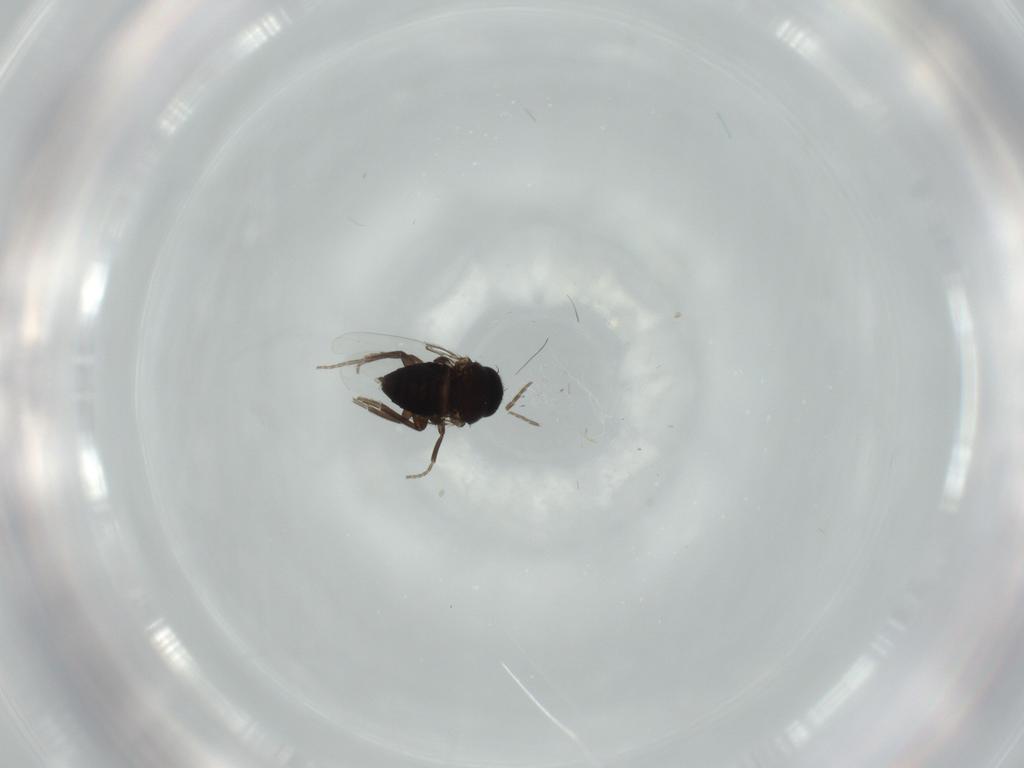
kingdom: Animalia
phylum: Arthropoda
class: Insecta
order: Diptera
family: Phoridae
